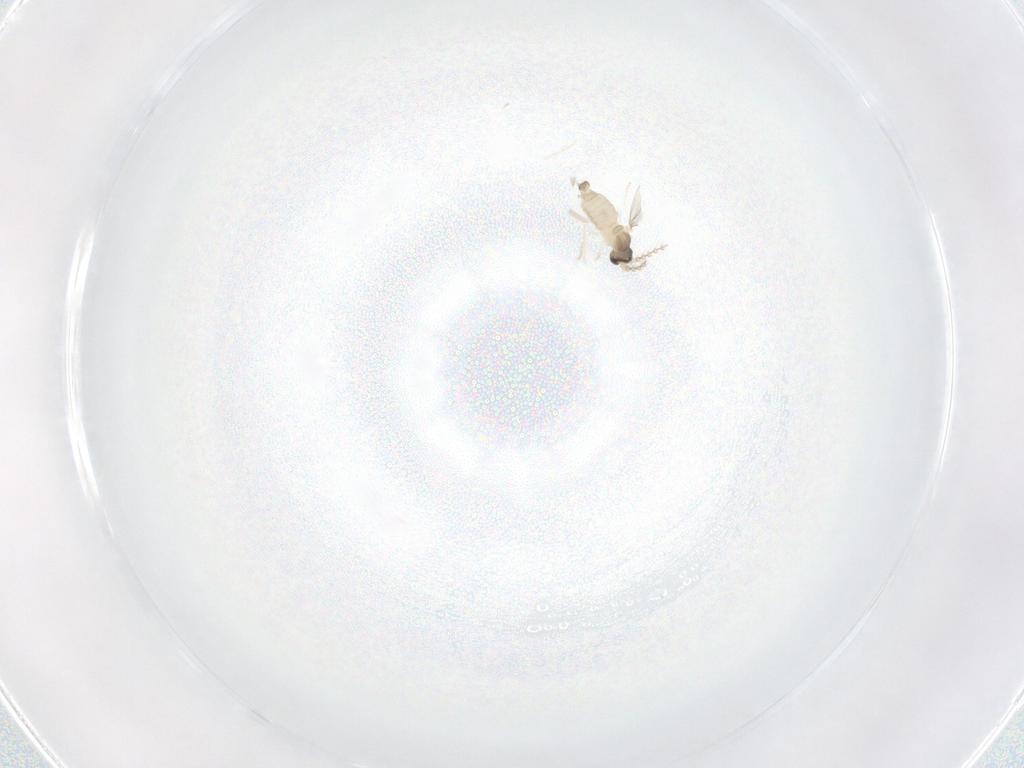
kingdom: Animalia
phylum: Arthropoda
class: Insecta
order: Diptera
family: Cecidomyiidae
